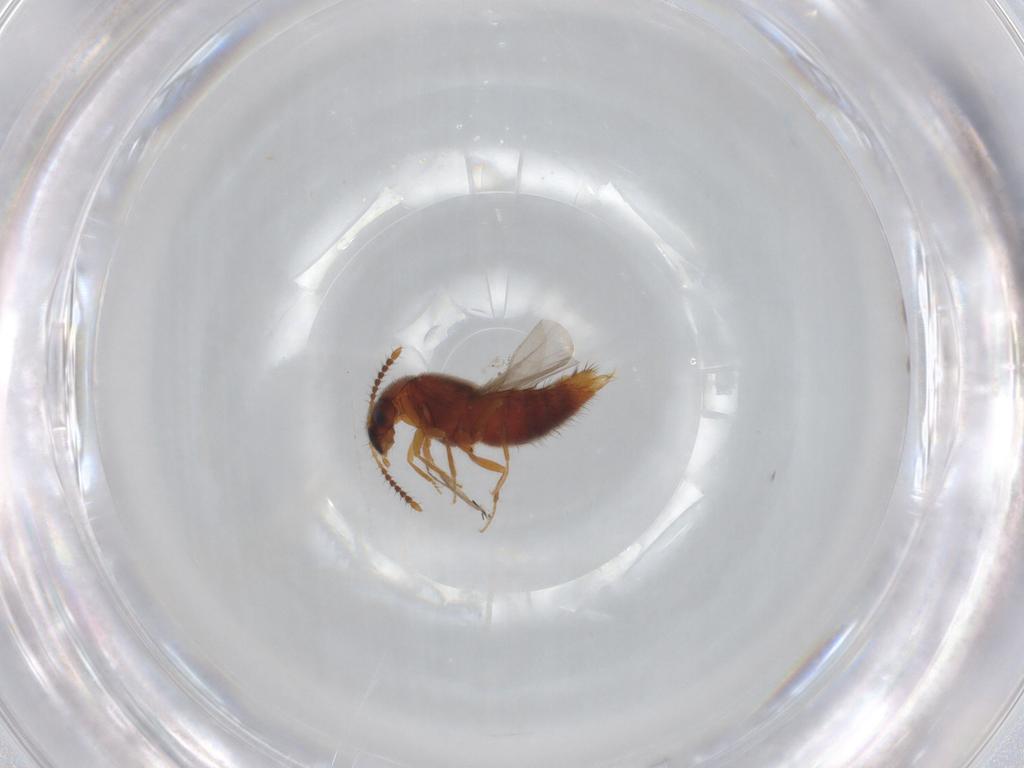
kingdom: Animalia
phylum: Arthropoda
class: Insecta
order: Coleoptera
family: Staphylinidae
